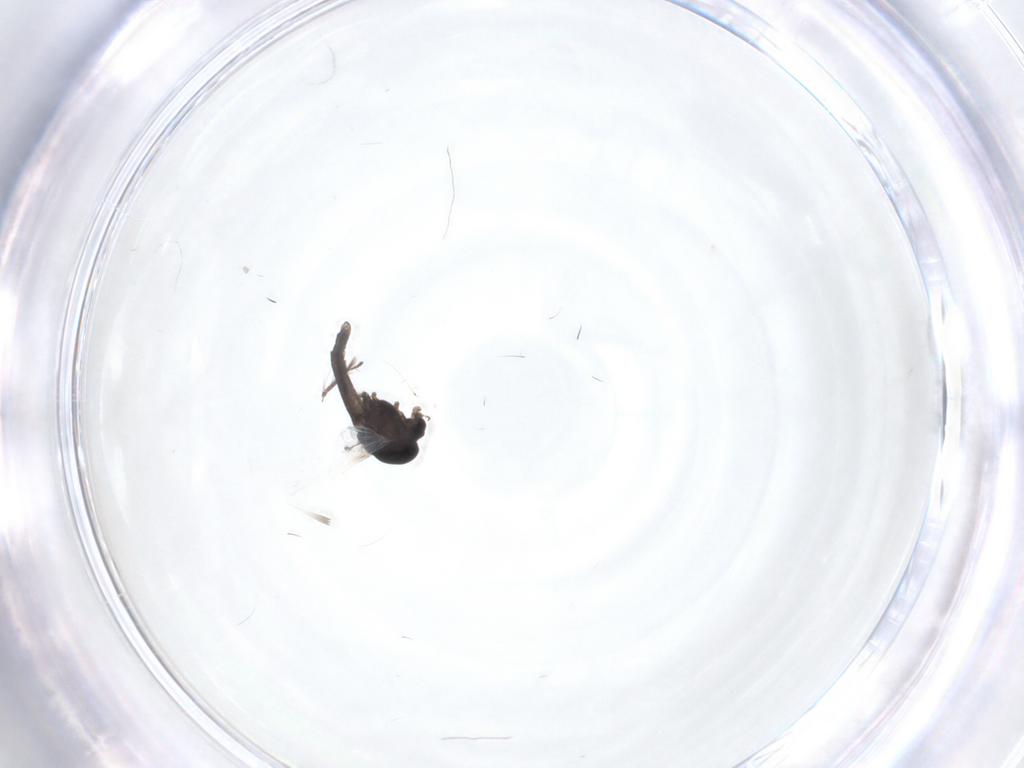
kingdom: Animalia
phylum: Arthropoda
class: Insecta
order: Diptera
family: Chironomidae
